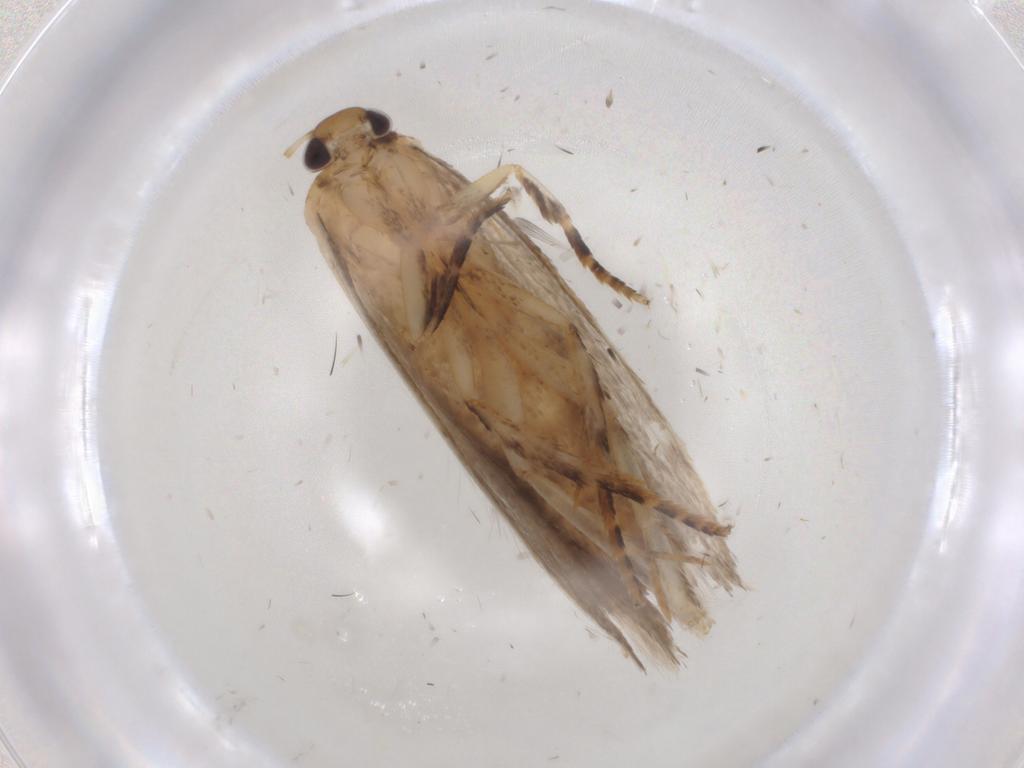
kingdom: Animalia
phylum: Arthropoda
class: Insecta
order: Lepidoptera
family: Gelechiidae
